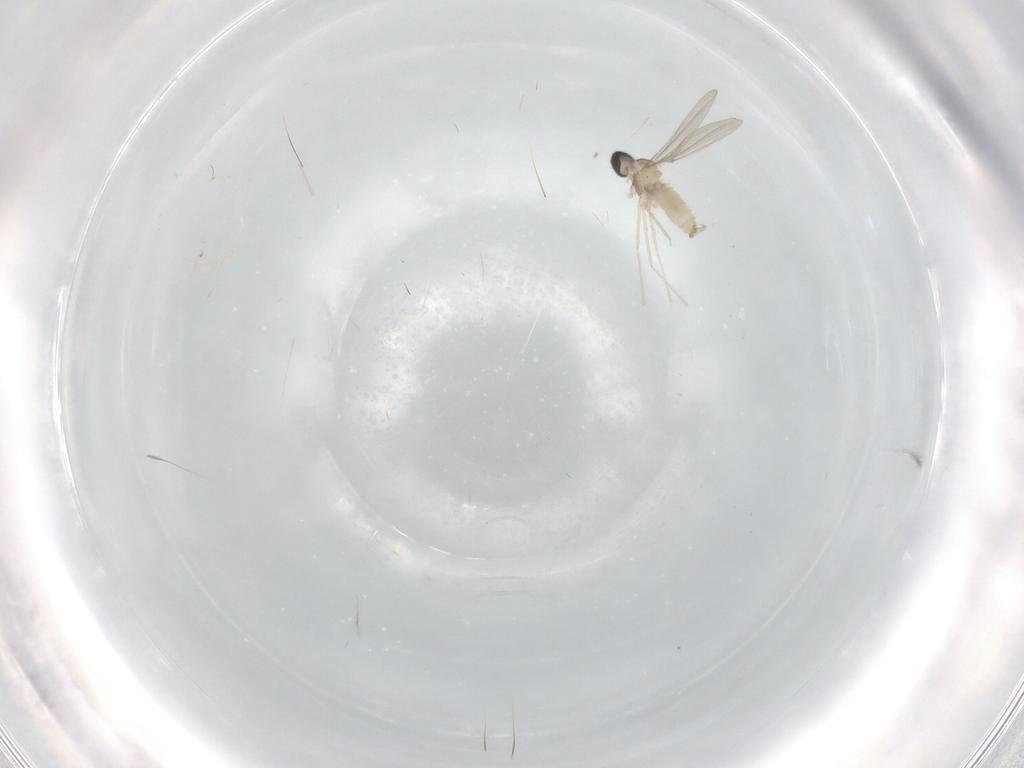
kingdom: Animalia
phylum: Arthropoda
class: Insecta
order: Diptera
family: Cecidomyiidae
